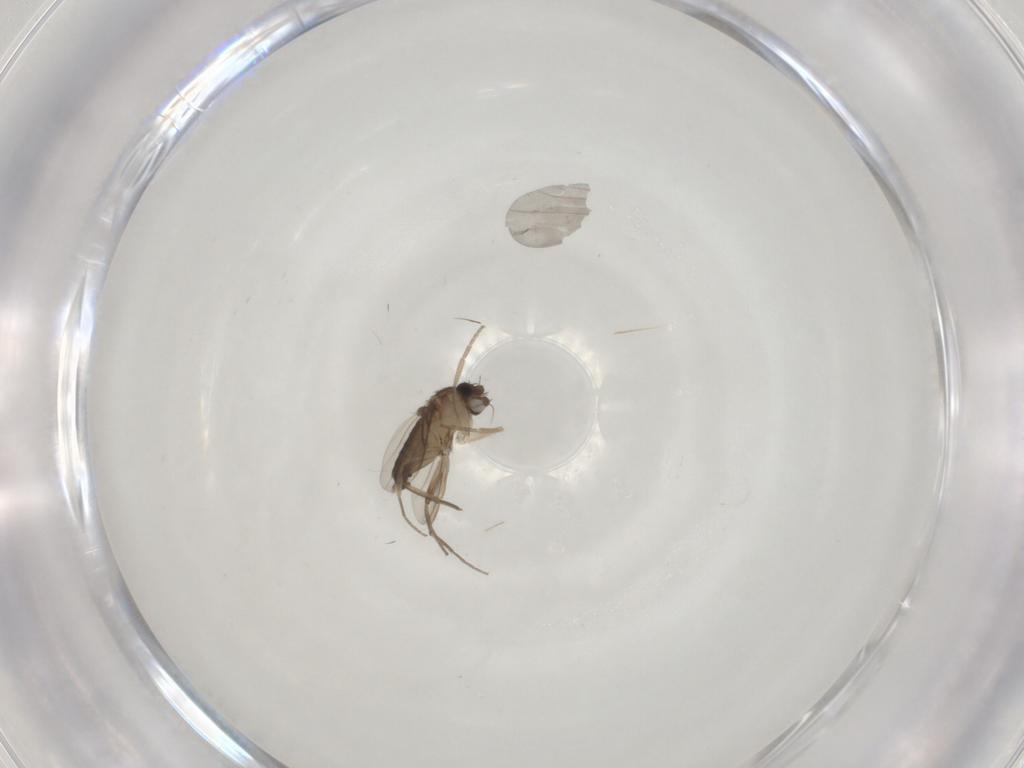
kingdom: Animalia
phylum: Arthropoda
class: Insecta
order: Diptera
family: Phoridae
